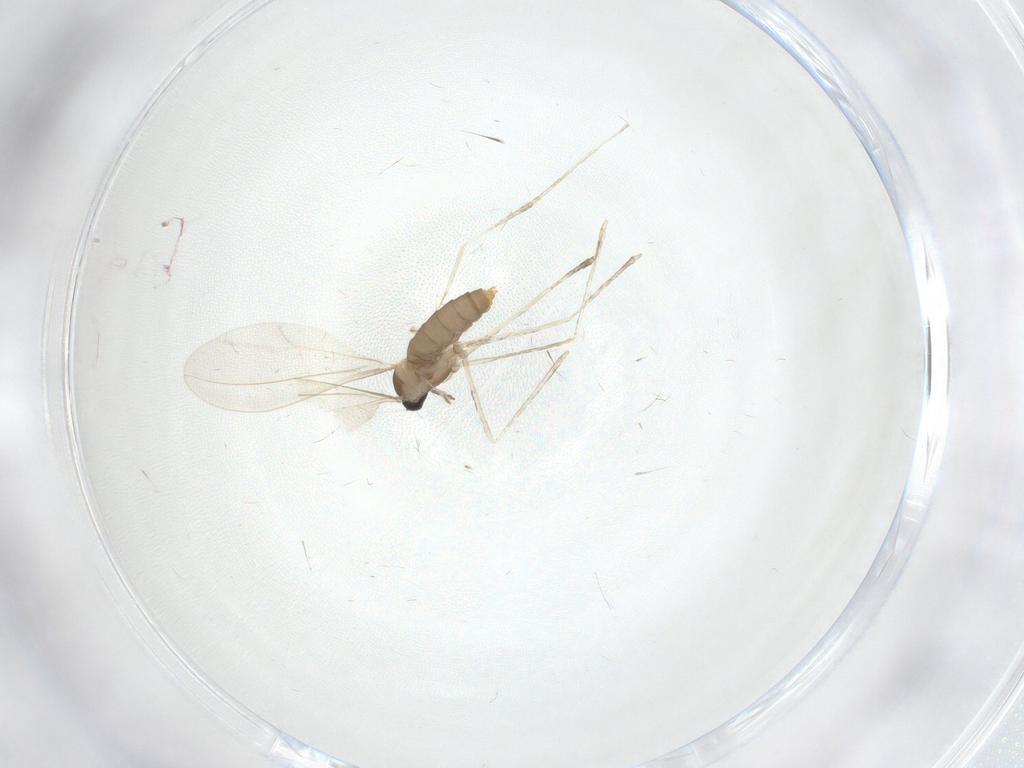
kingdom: Animalia
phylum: Arthropoda
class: Insecta
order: Diptera
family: Cecidomyiidae
